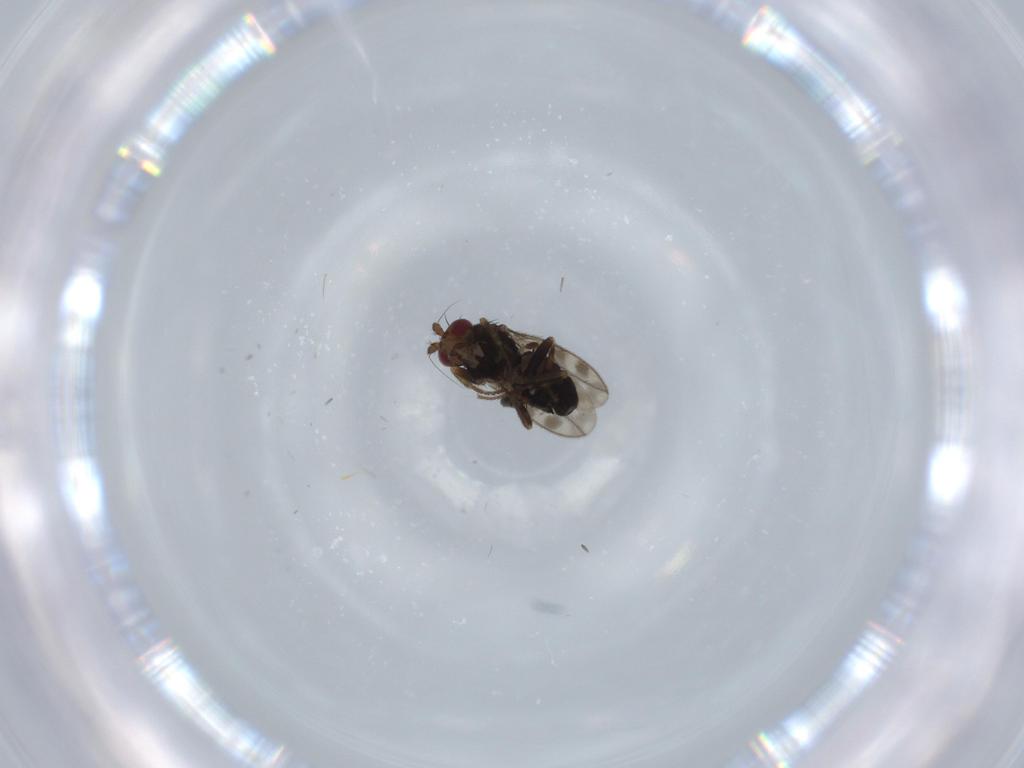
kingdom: Animalia
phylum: Arthropoda
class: Insecta
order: Diptera
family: Sphaeroceridae
